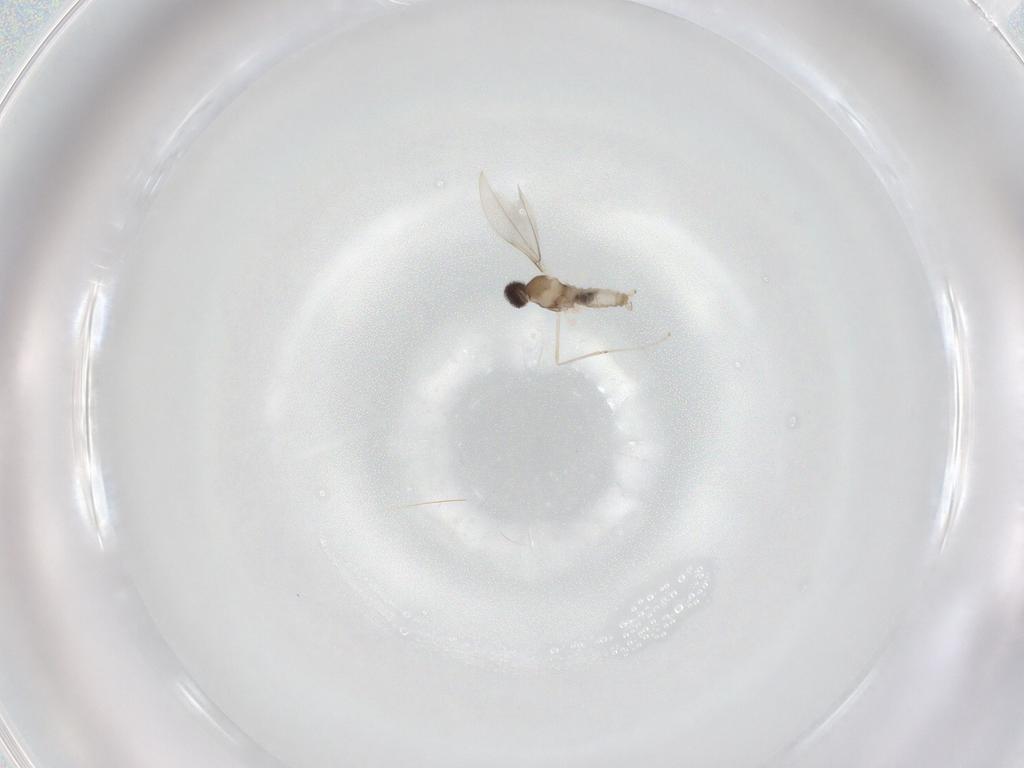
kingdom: Animalia
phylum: Arthropoda
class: Insecta
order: Diptera
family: Cecidomyiidae
